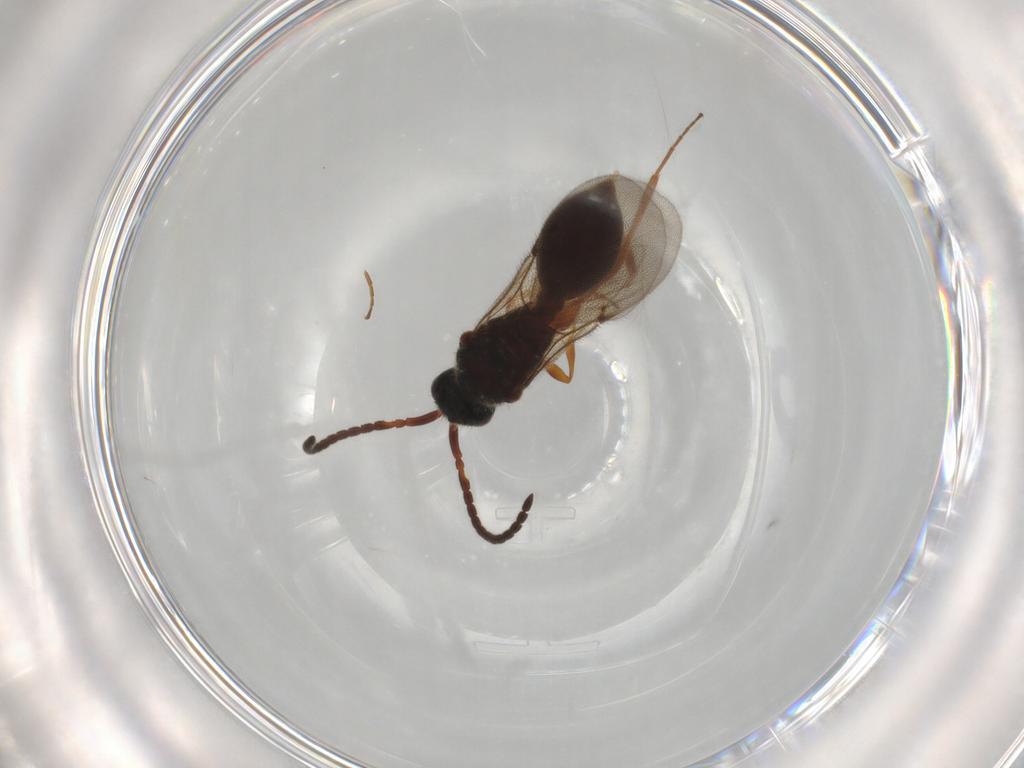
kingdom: Animalia
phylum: Arthropoda
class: Insecta
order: Hymenoptera
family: Diapriidae
